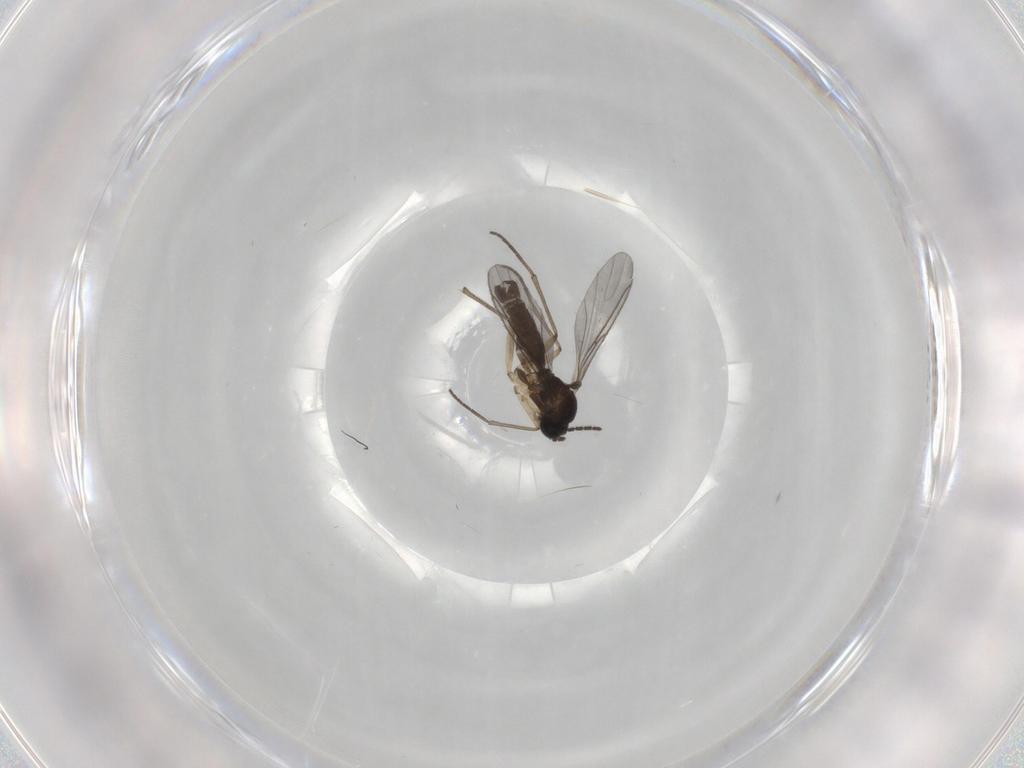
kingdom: Animalia
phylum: Arthropoda
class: Insecta
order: Diptera
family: Sciaridae
